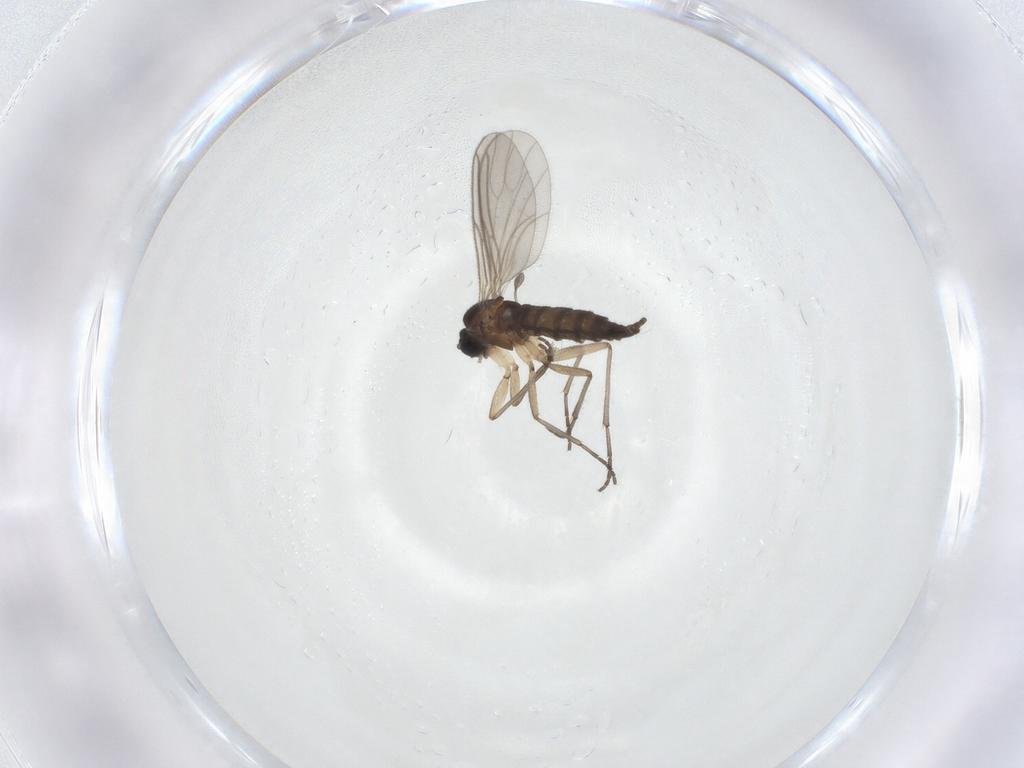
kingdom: Animalia
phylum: Arthropoda
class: Insecta
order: Diptera
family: Sciaridae
